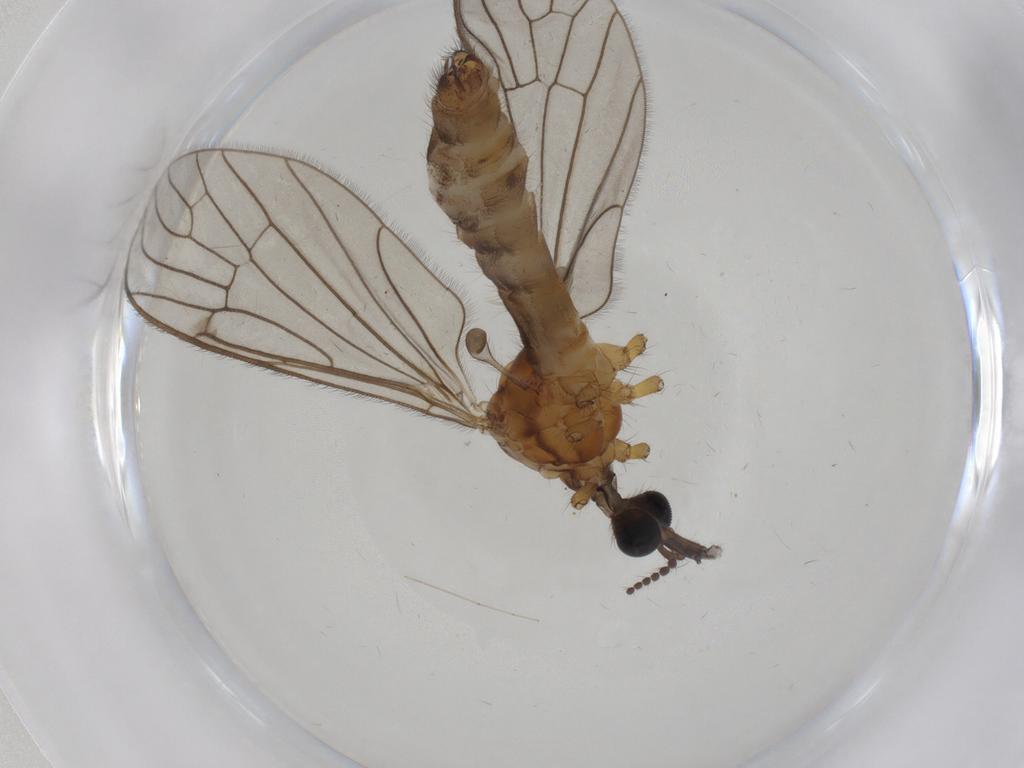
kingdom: Animalia
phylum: Arthropoda
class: Insecta
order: Diptera
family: Limoniidae
